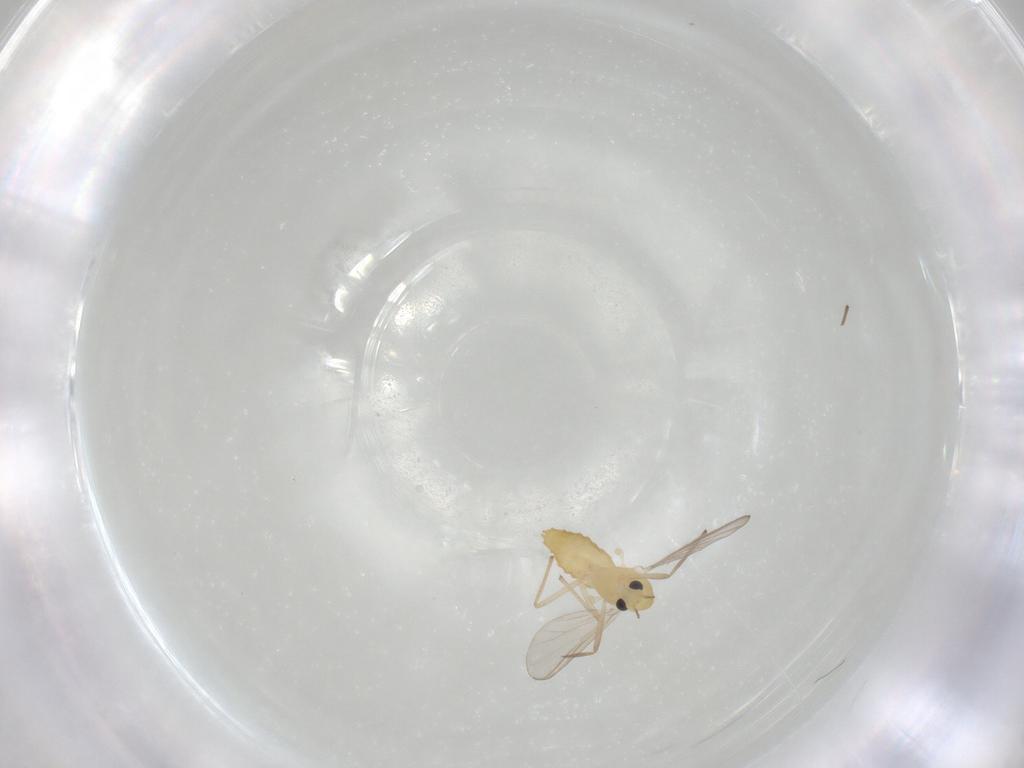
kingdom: Animalia
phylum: Arthropoda
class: Insecta
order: Diptera
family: Chironomidae
